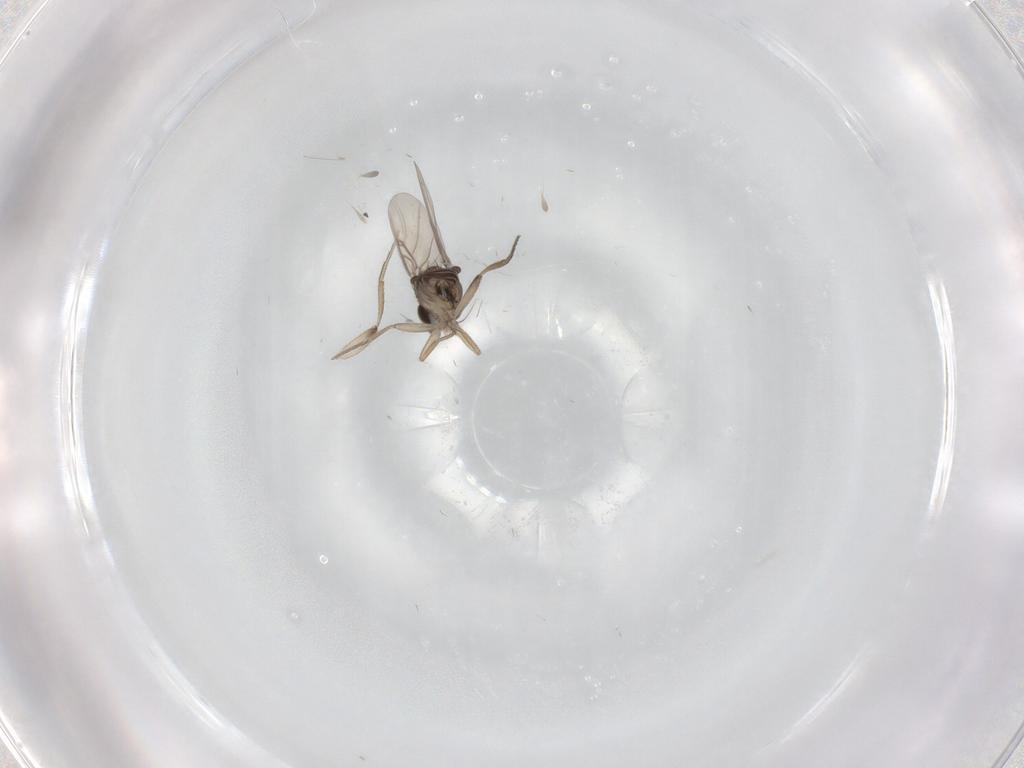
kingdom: Animalia
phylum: Arthropoda
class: Insecta
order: Diptera
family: Phoridae
